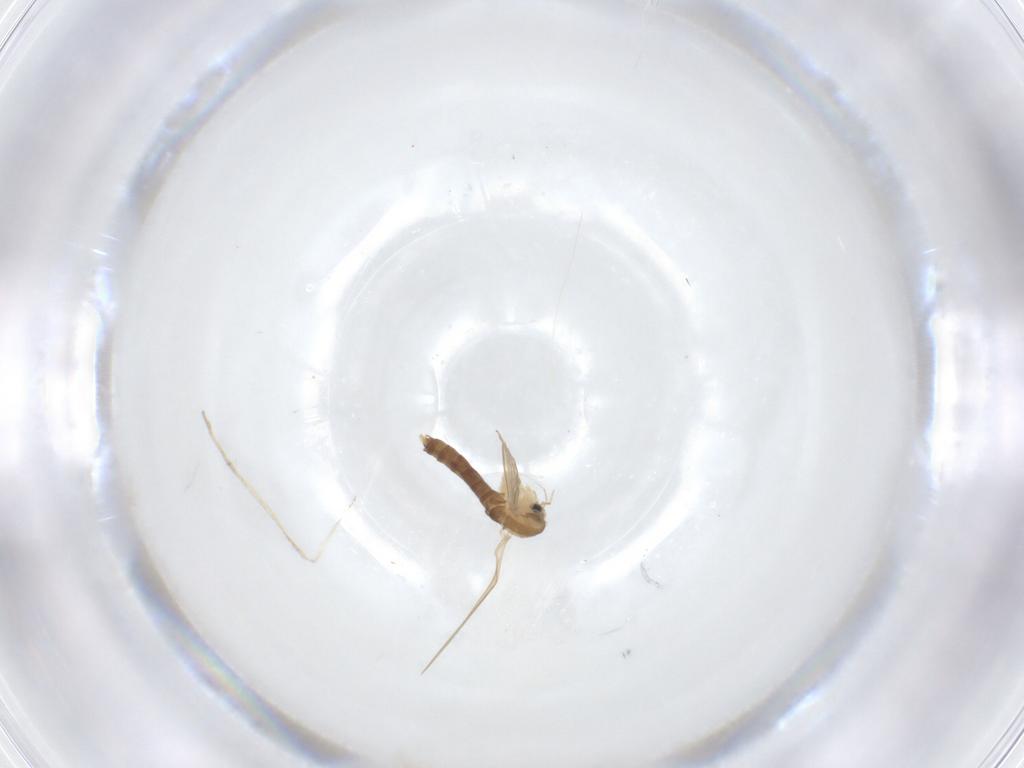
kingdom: Animalia
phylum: Arthropoda
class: Insecta
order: Diptera
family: Psychodidae
